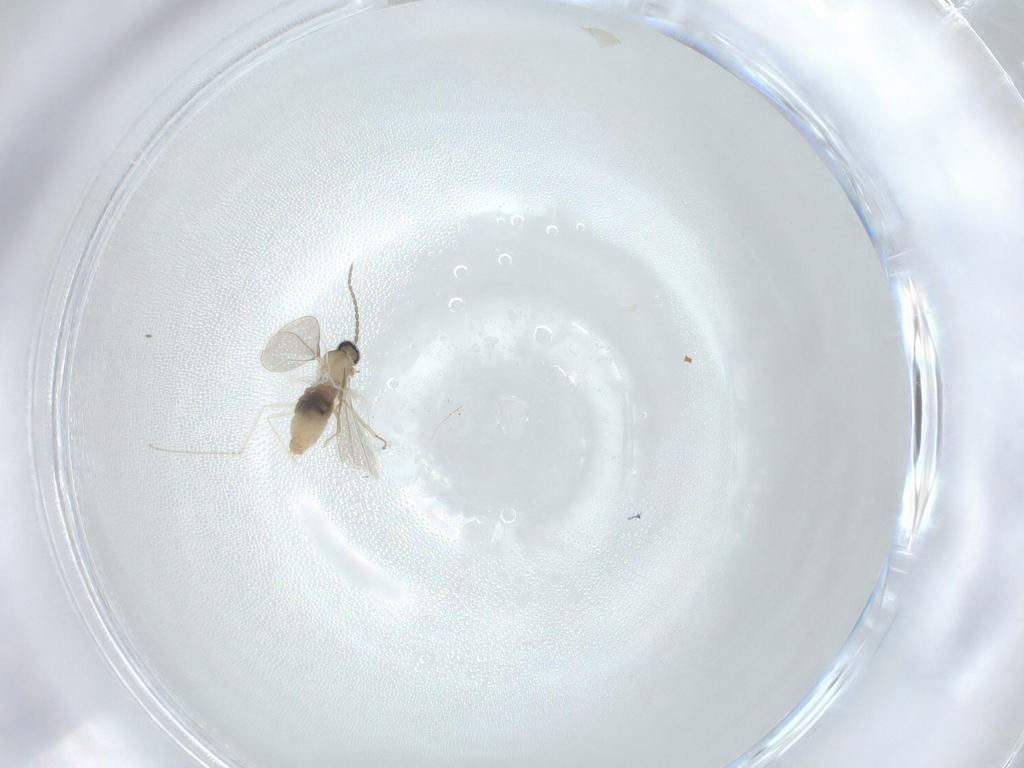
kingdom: Animalia
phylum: Arthropoda
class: Insecta
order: Diptera
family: Cecidomyiidae
